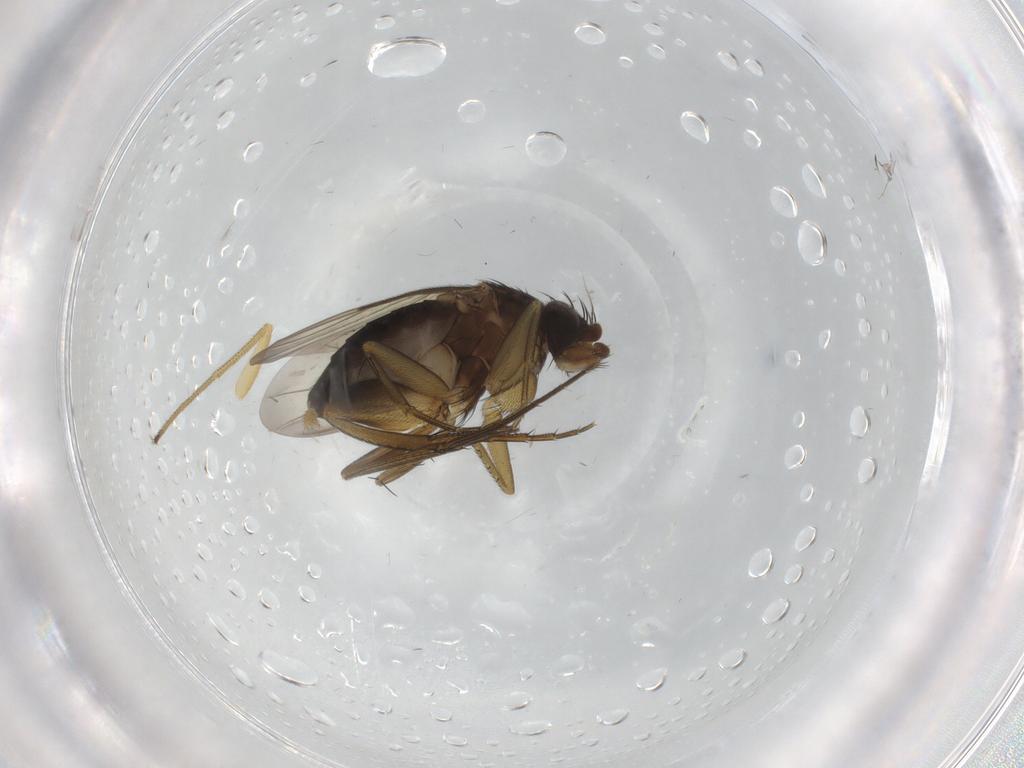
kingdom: Animalia
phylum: Arthropoda
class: Insecta
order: Diptera
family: Phoridae
